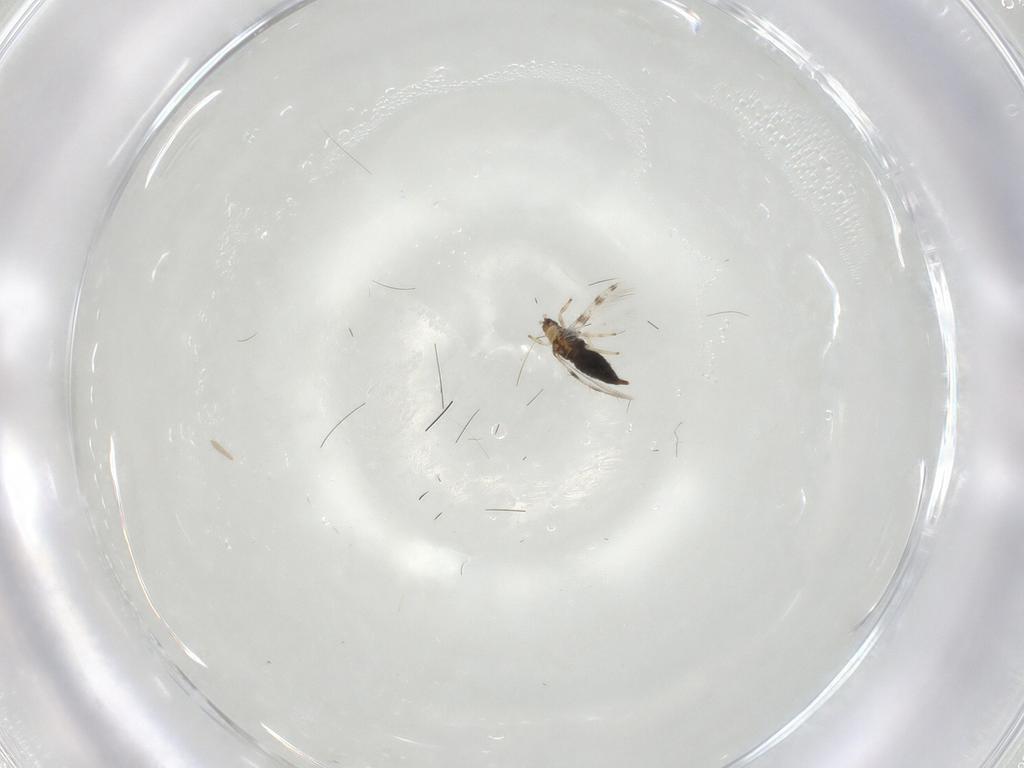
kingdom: Animalia
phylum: Arthropoda
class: Insecta
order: Thysanoptera
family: Thripidae
